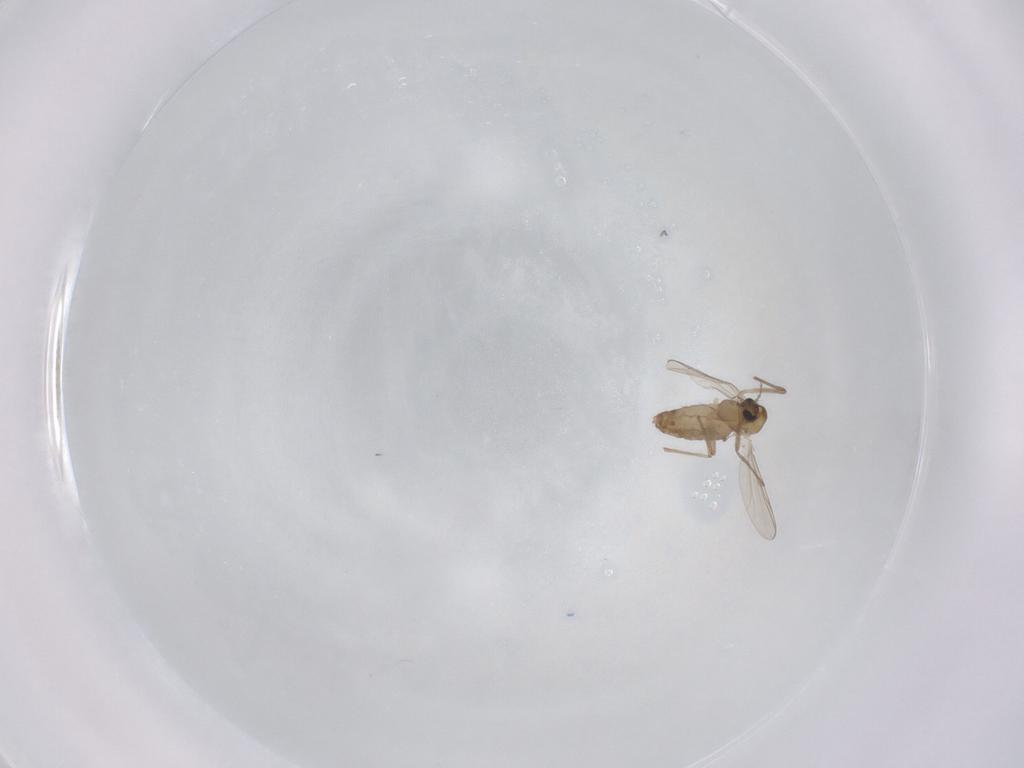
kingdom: Animalia
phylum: Arthropoda
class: Insecta
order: Diptera
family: Chironomidae
